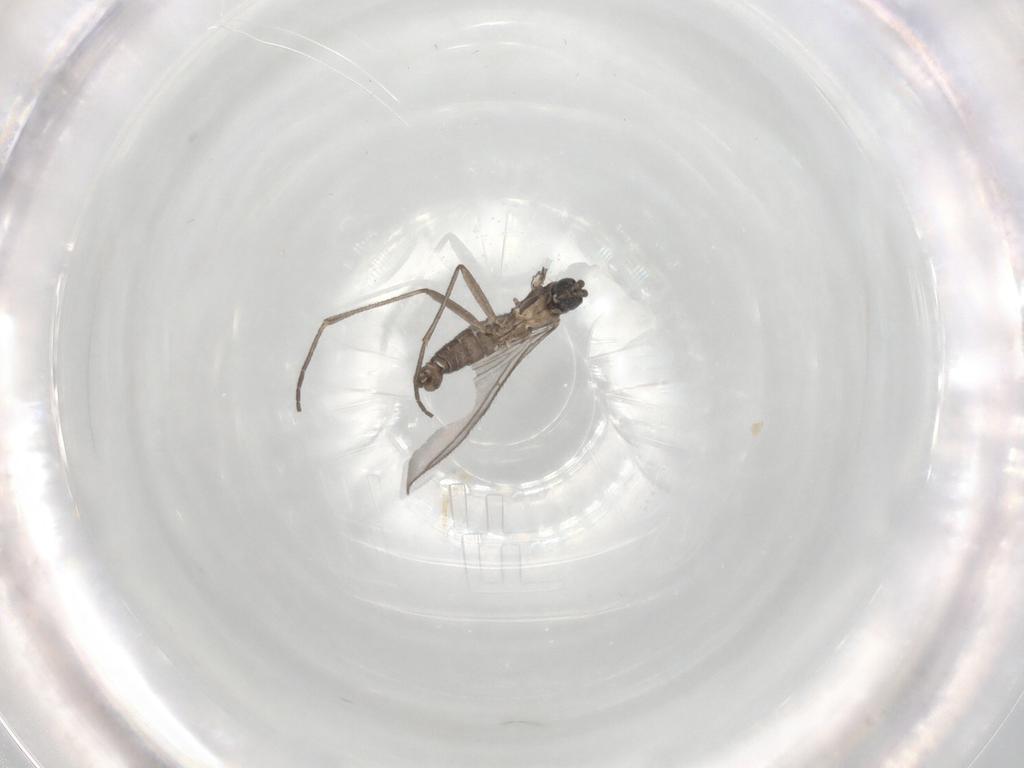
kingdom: Animalia
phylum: Arthropoda
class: Insecta
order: Diptera
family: Sciaridae
